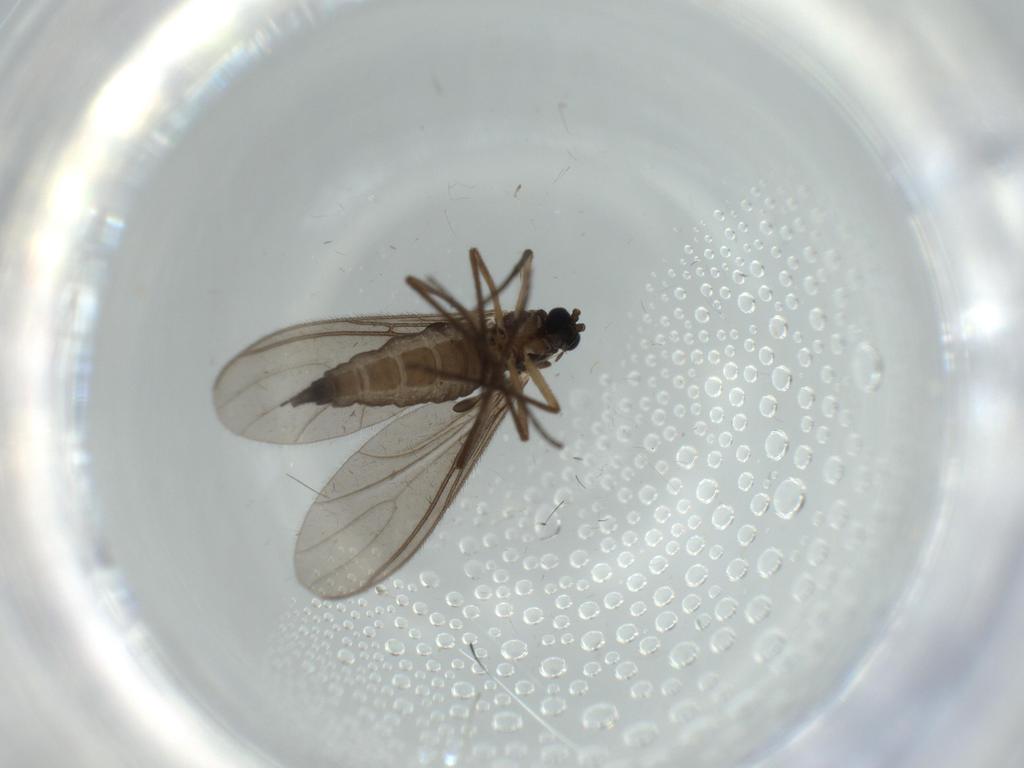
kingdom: Animalia
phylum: Arthropoda
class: Insecta
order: Diptera
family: Dolichopodidae
